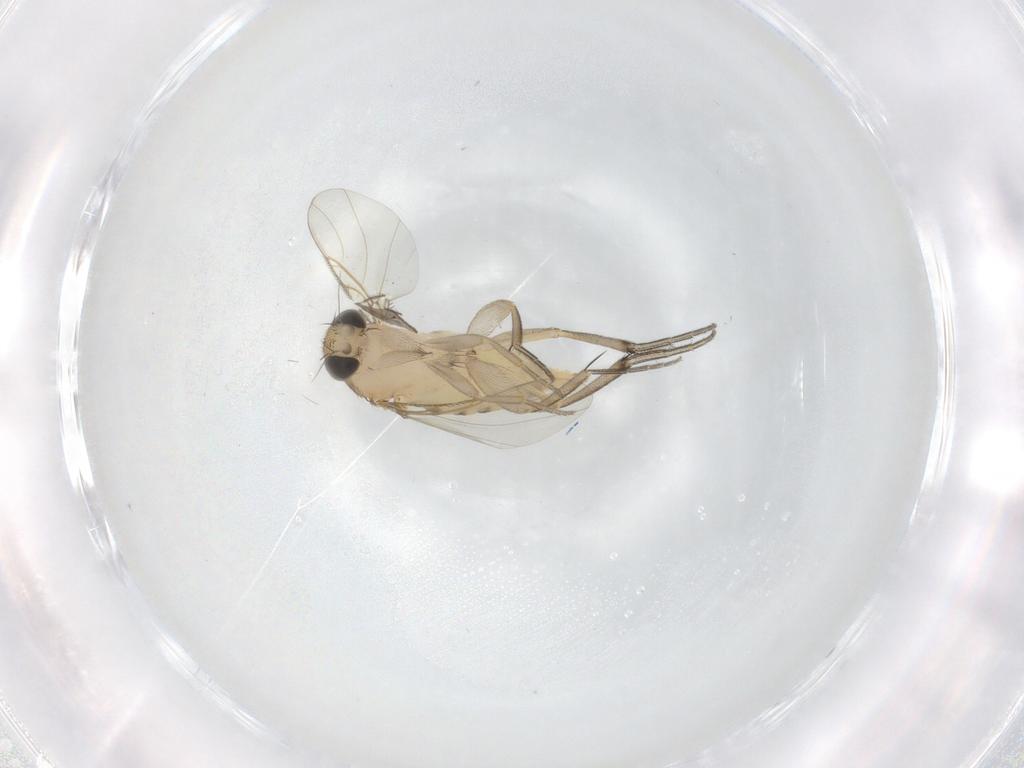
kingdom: Animalia
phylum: Arthropoda
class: Insecta
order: Diptera
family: Phoridae
